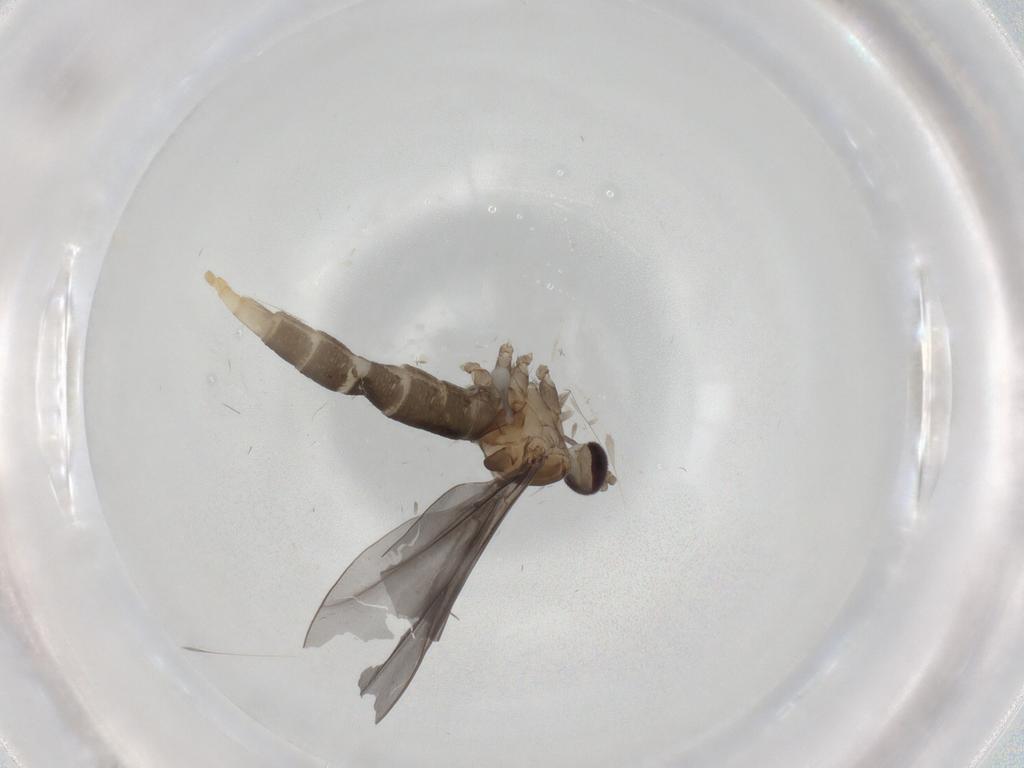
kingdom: Animalia
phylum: Arthropoda
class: Insecta
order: Diptera
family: Cecidomyiidae
